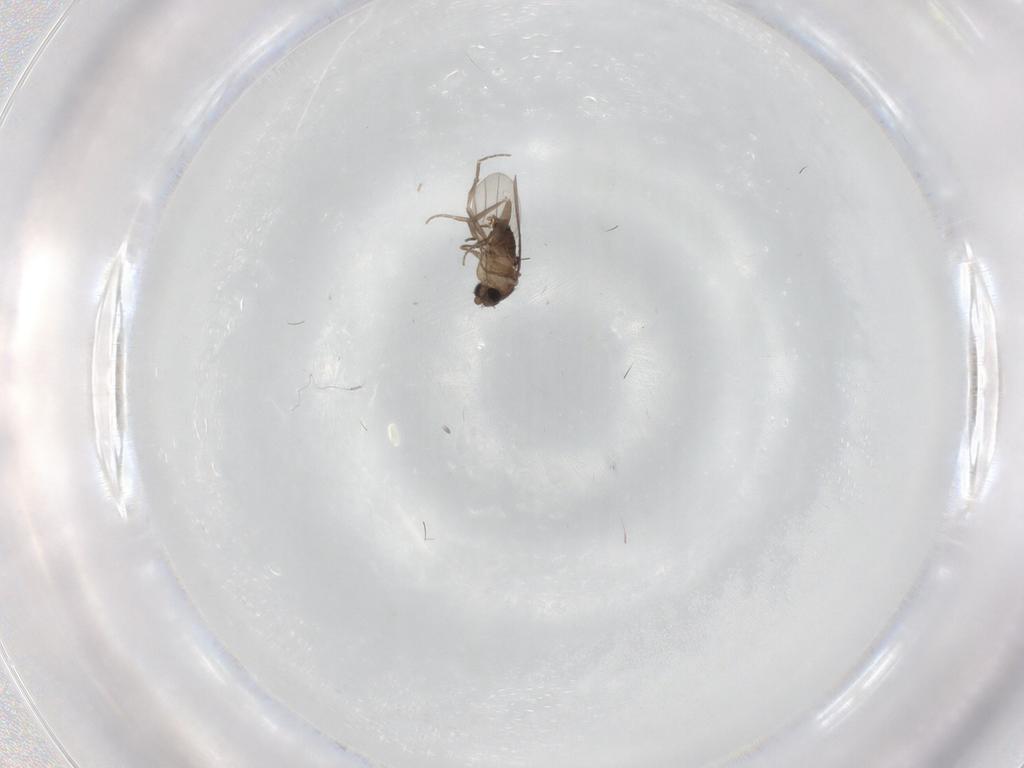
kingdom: Animalia
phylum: Arthropoda
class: Insecta
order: Diptera
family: Phoridae
